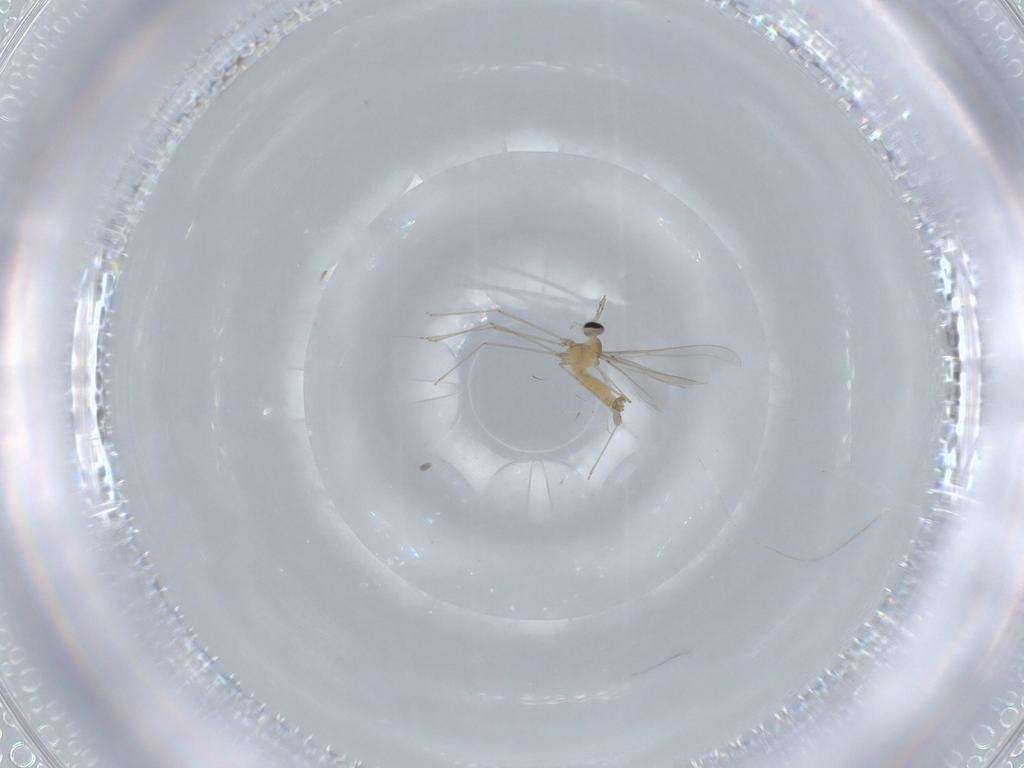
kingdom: Animalia
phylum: Arthropoda
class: Insecta
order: Diptera
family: Cecidomyiidae
